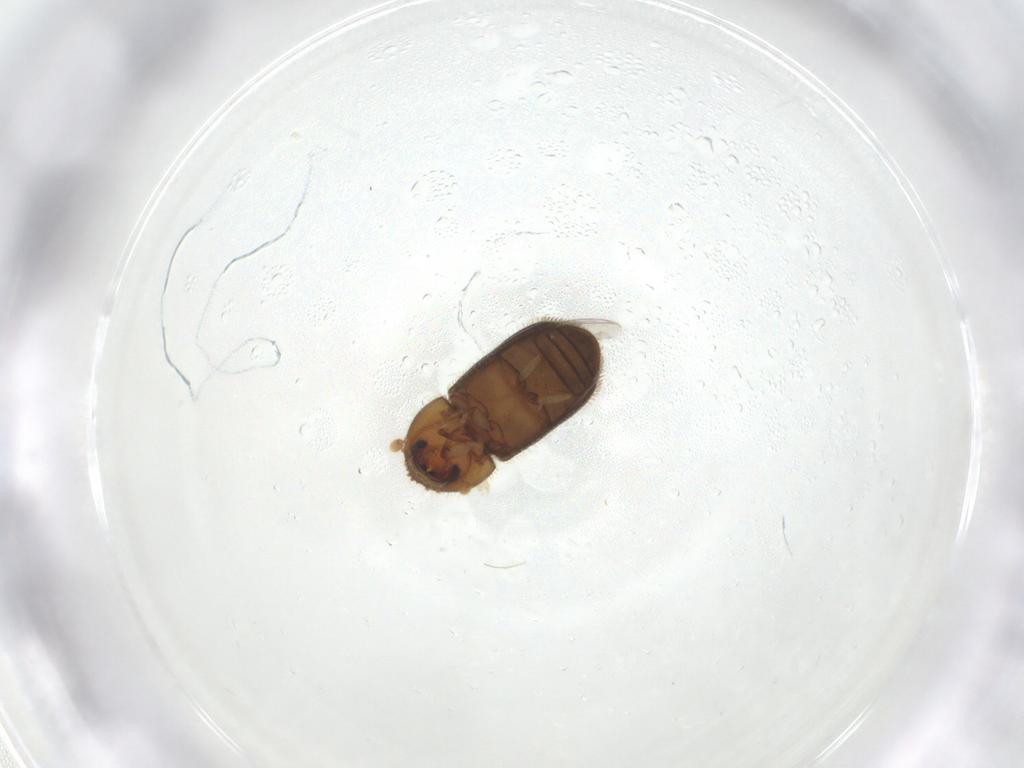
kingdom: Animalia
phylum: Arthropoda
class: Insecta
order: Coleoptera
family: Curculionidae
